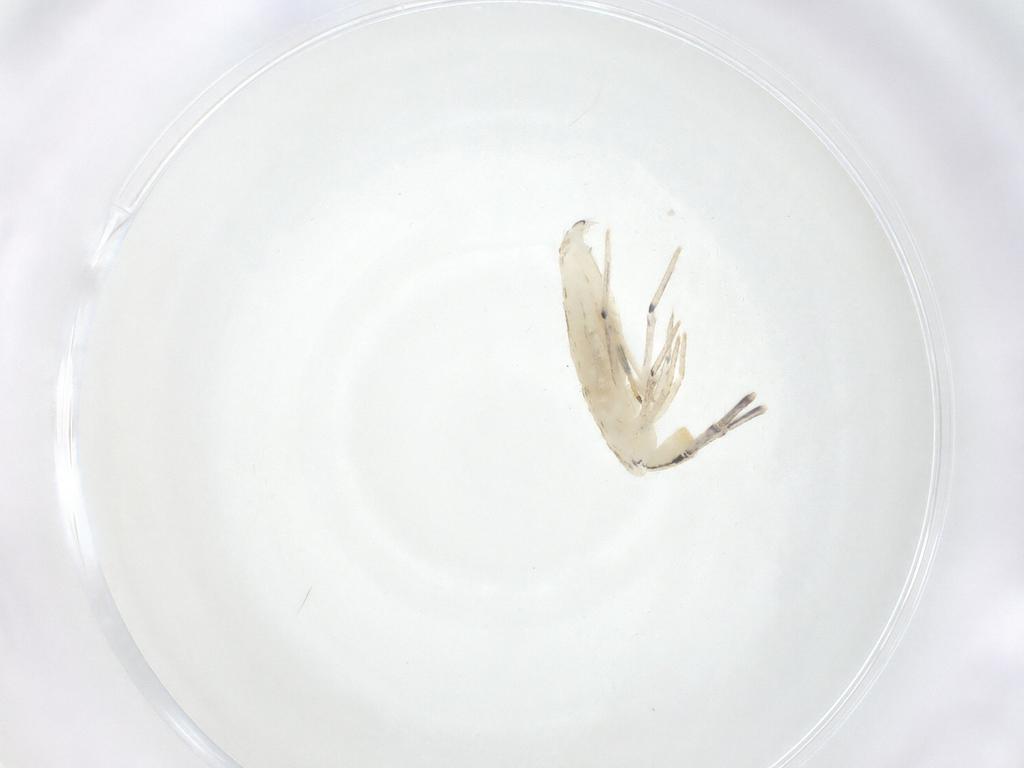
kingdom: Animalia
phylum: Arthropoda
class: Collembola
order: Entomobryomorpha
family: Entomobryidae
